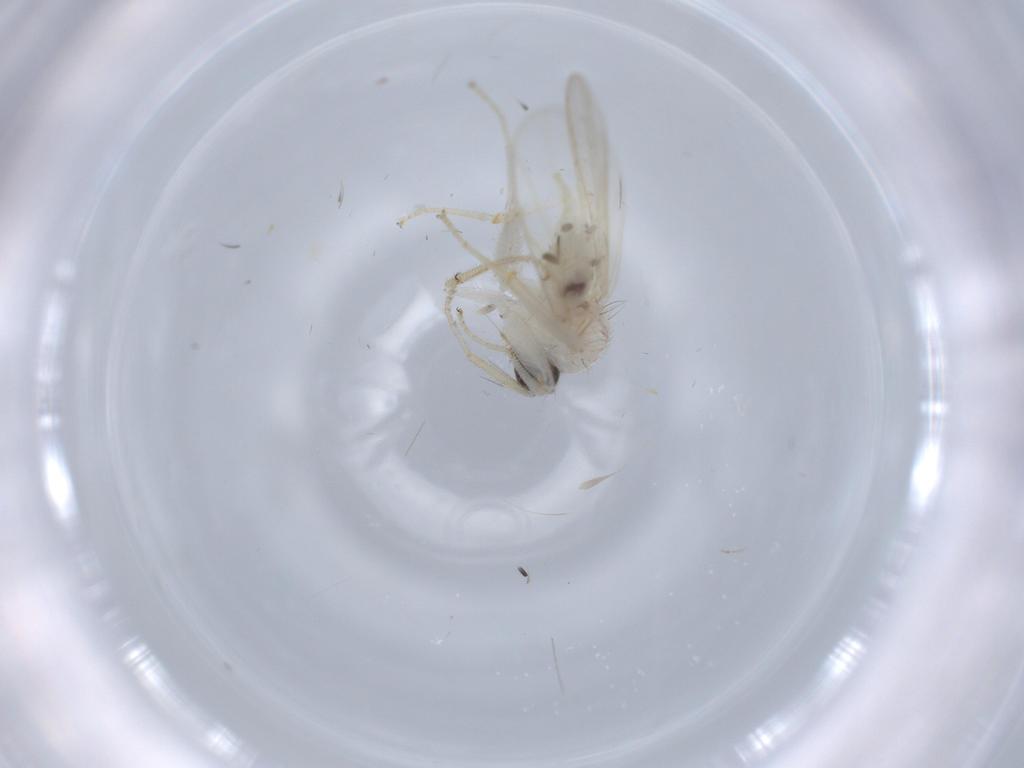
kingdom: Animalia
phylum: Arthropoda
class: Insecta
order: Diptera
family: Hybotidae
